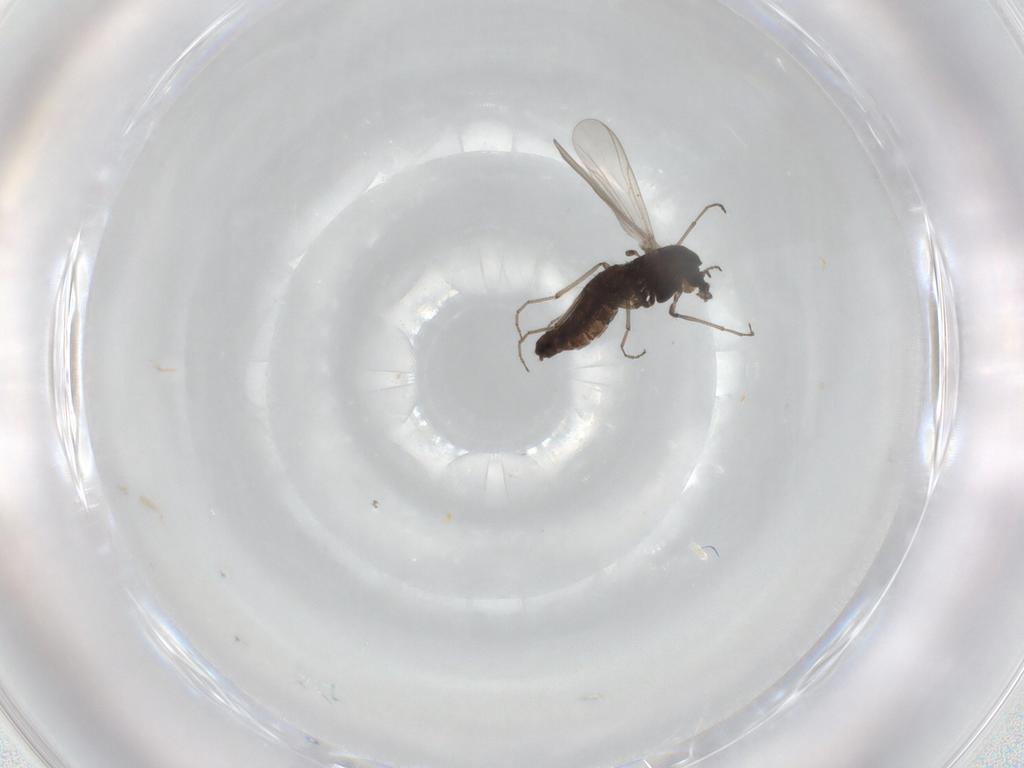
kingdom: Animalia
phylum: Arthropoda
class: Insecta
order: Diptera
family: Chironomidae
